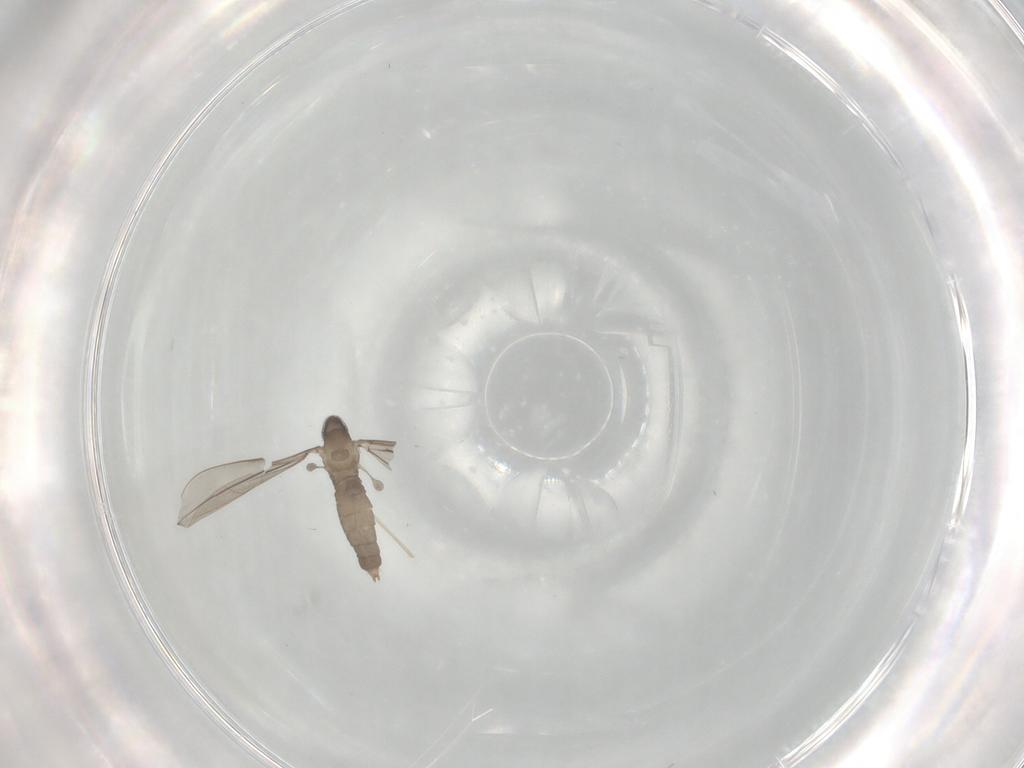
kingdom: Animalia
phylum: Arthropoda
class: Insecta
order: Diptera
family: Cecidomyiidae
